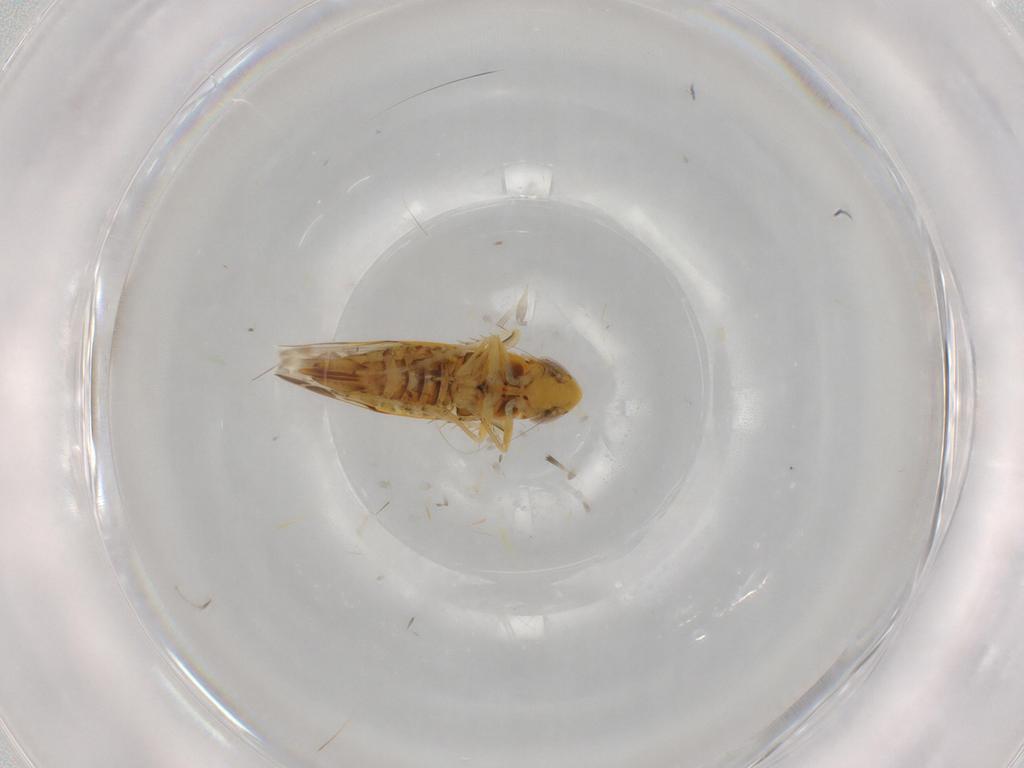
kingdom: Animalia
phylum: Arthropoda
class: Insecta
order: Hemiptera
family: Cicadellidae
